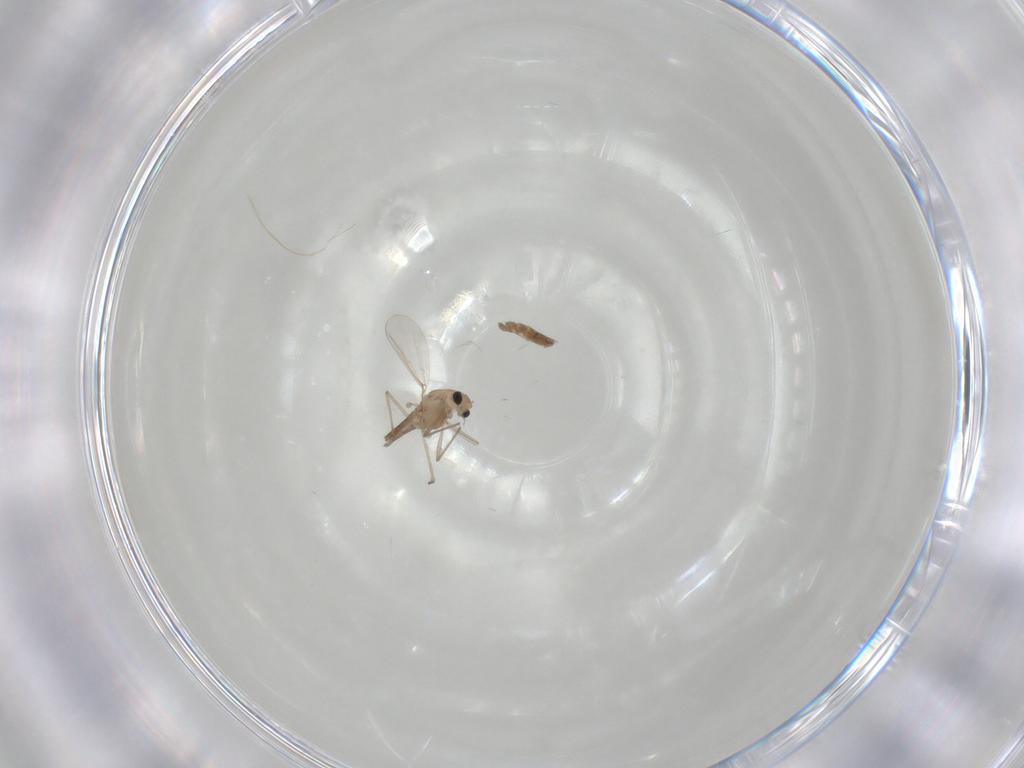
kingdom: Animalia
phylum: Arthropoda
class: Insecta
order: Diptera
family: Chironomidae
